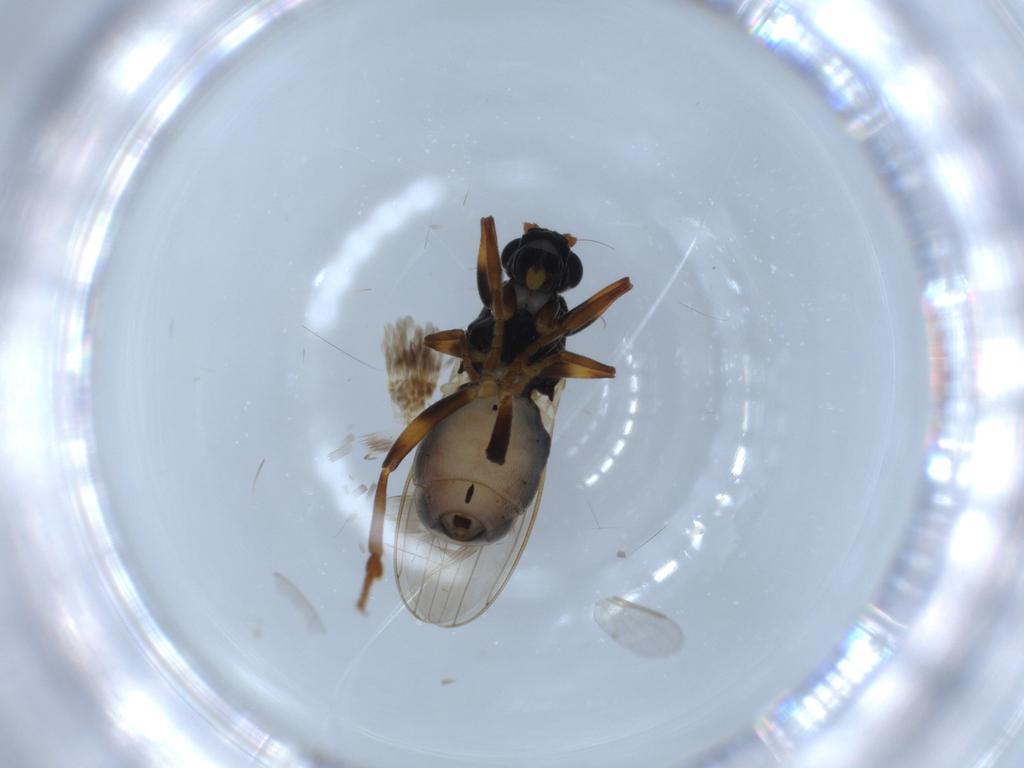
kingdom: Animalia
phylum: Arthropoda
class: Insecta
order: Diptera
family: Sphaeroceridae
